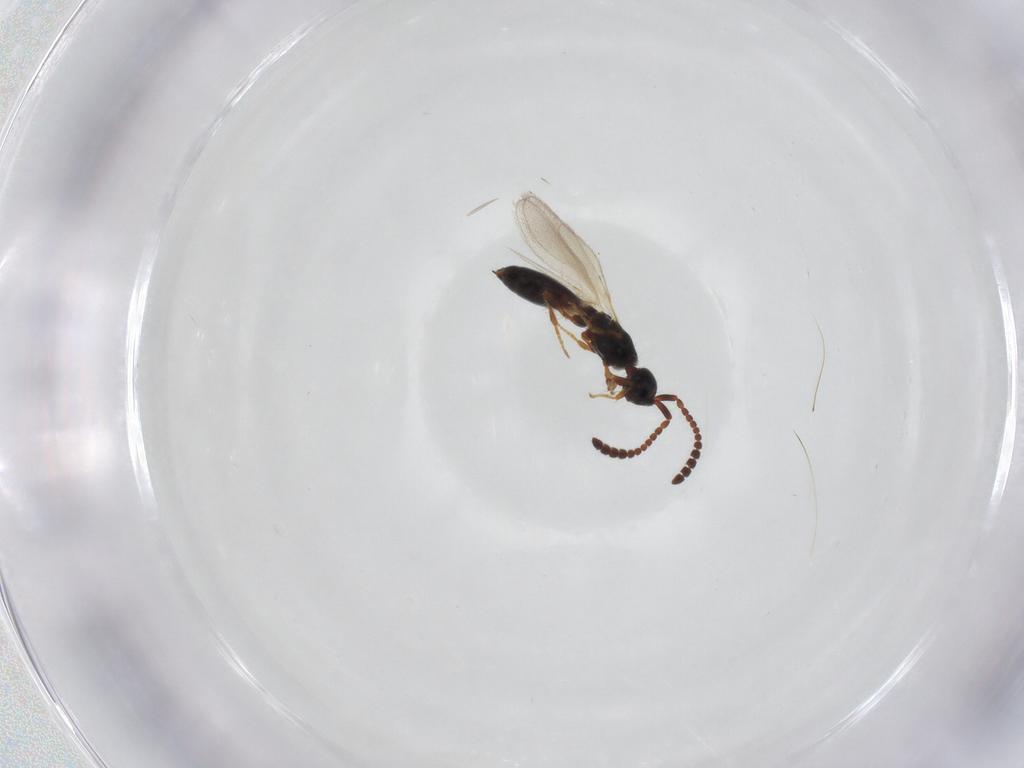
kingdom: Animalia
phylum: Arthropoda
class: Insecta
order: Hymenoptera
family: Diapriidae
